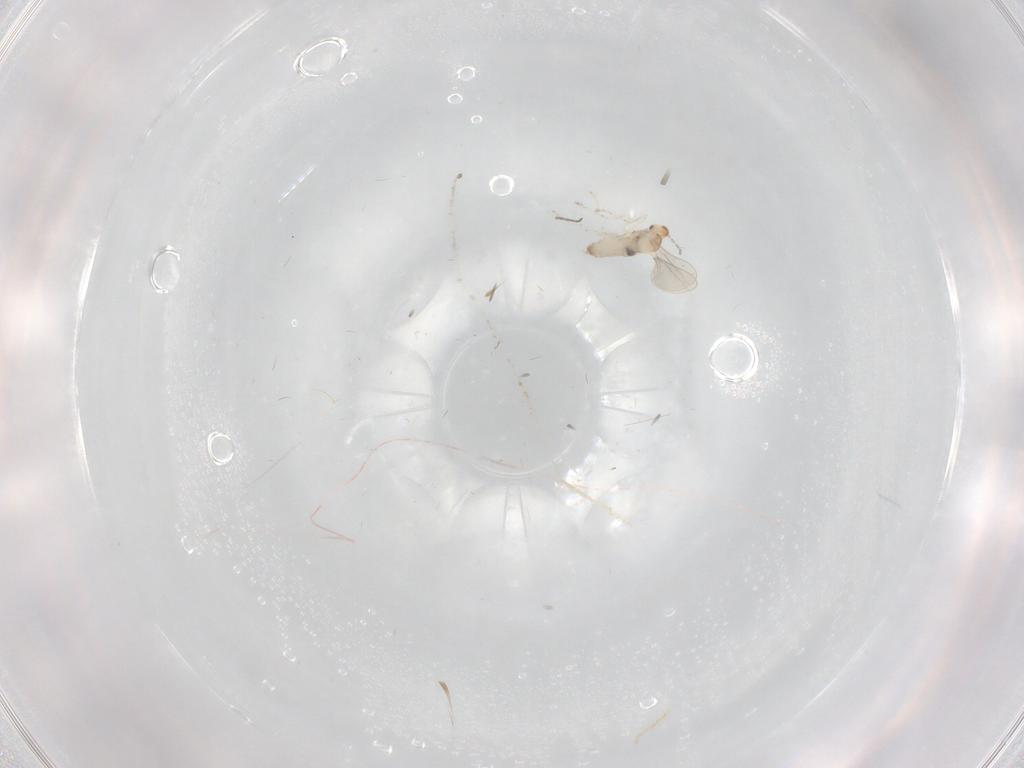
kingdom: Animalia
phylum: Arthropoda
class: Insecta
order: Diptera
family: Cecidomyiidae
